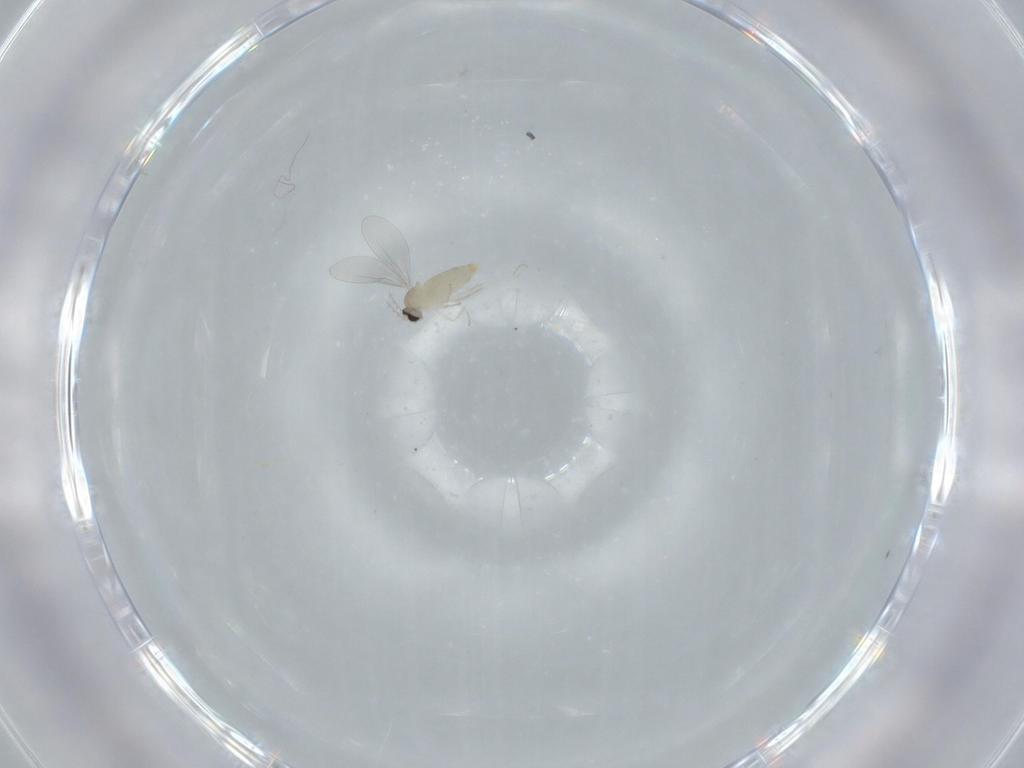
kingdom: Animalia
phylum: Arthropoda
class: Insecta
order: Diptera
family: Cecidomyiidae
